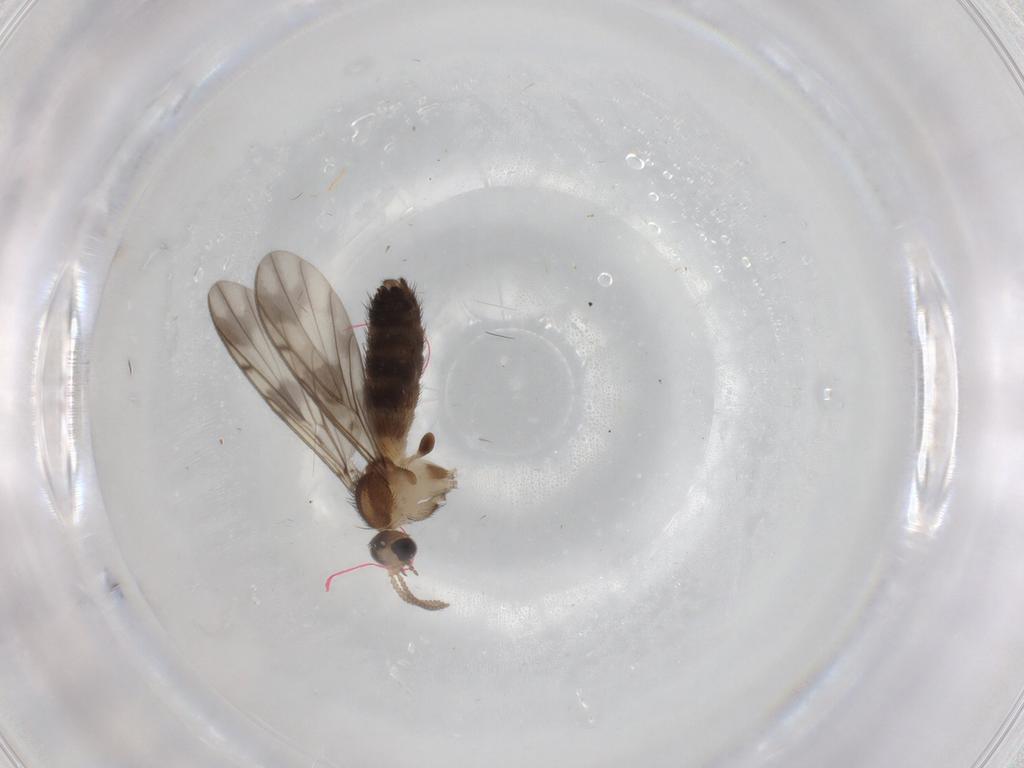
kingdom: Animalia
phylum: Arthropoda
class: Insecta
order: Diptera
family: Keroplatidae
